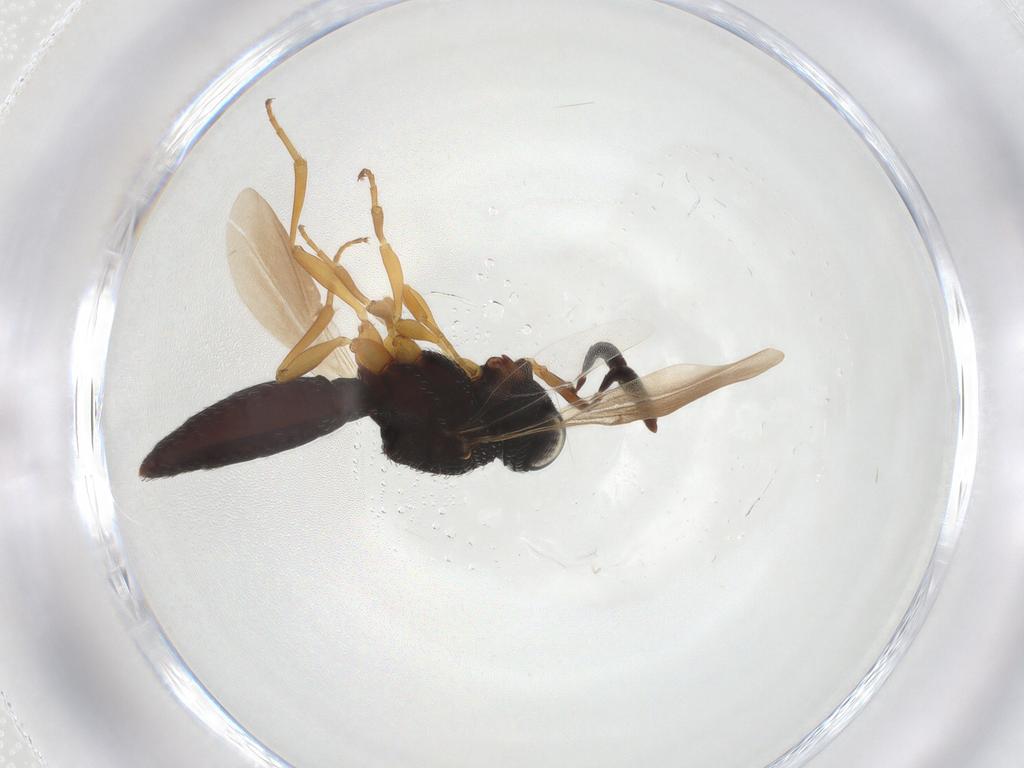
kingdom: Animalia
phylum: Arthropoda
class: Insecta
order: Hymenoptera
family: Scelionidae
